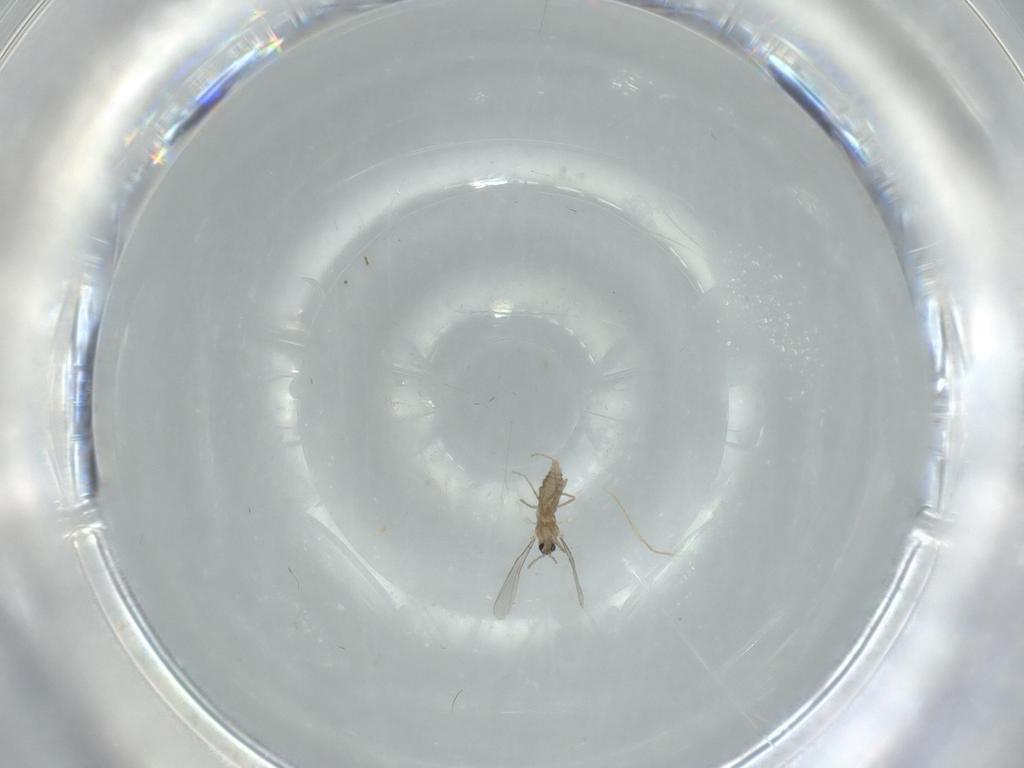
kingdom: Animalia
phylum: Arthropoda
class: Insecta
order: Diptera
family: Cecidomyiidae
